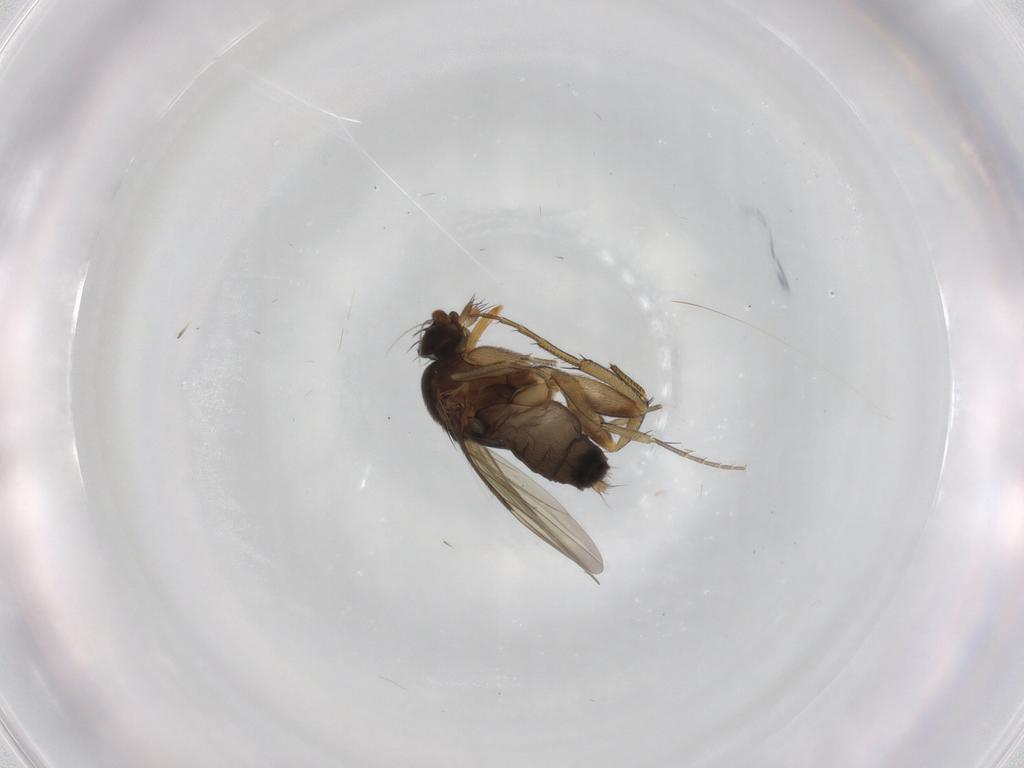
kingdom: Animalia
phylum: Arthropoda
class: Insecta
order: Diptera
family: Phoridae
